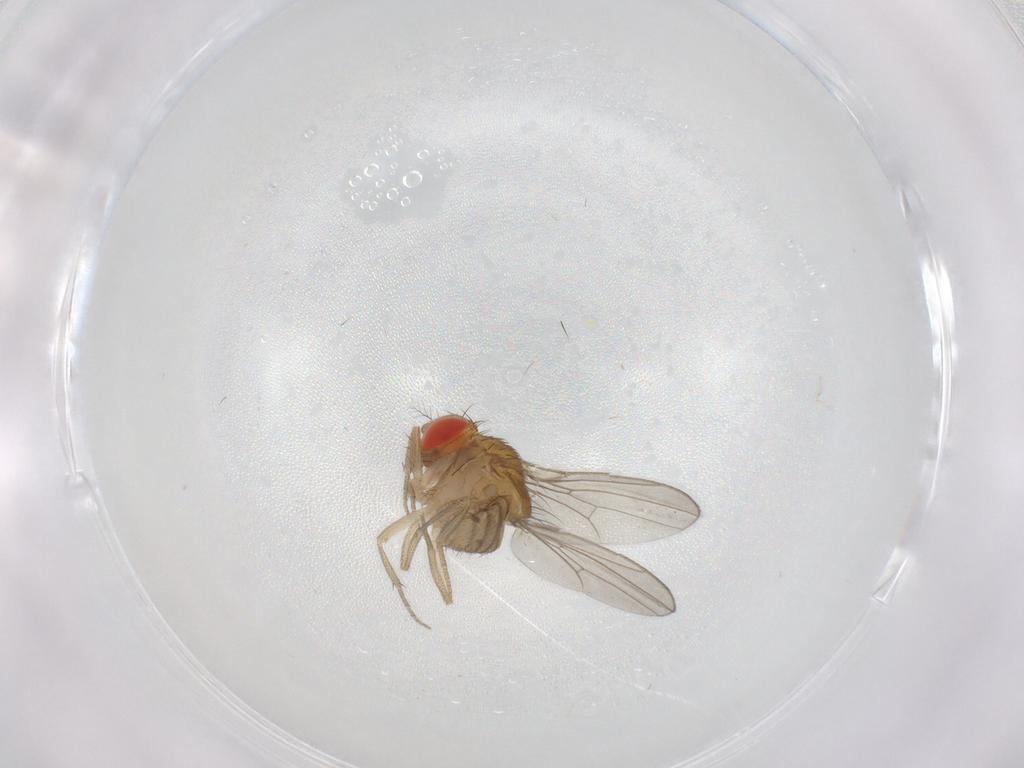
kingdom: Animalia
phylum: Arthropoda
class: Insecta
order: Diptera
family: Drosophilidae
